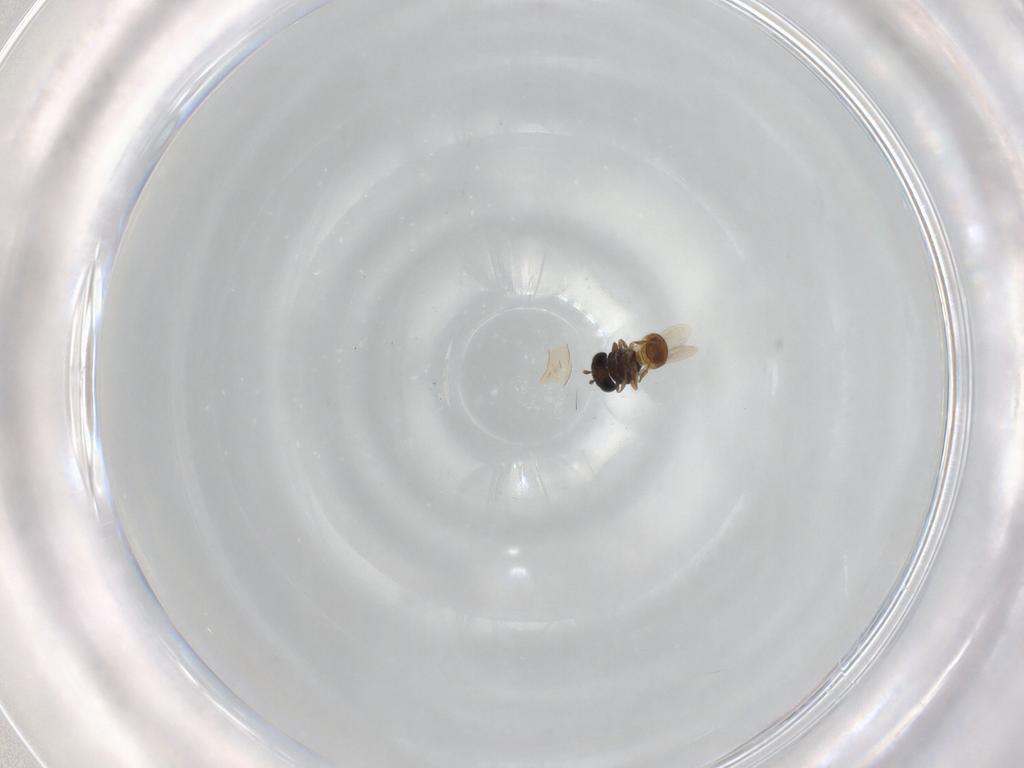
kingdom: Animalia
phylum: Arthropoda
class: Insecta
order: Hymenoptera
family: Scelionidae
